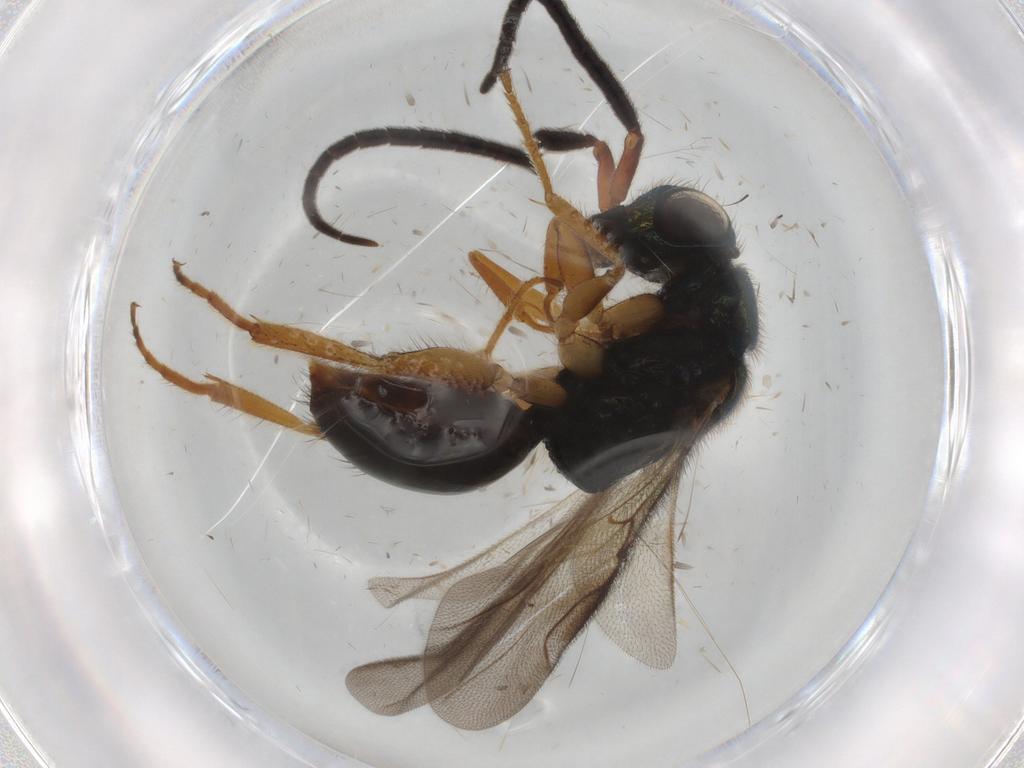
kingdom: Animalia
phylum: Arthropoda
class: Insecta
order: Hymenoptera
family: Chrysididae
